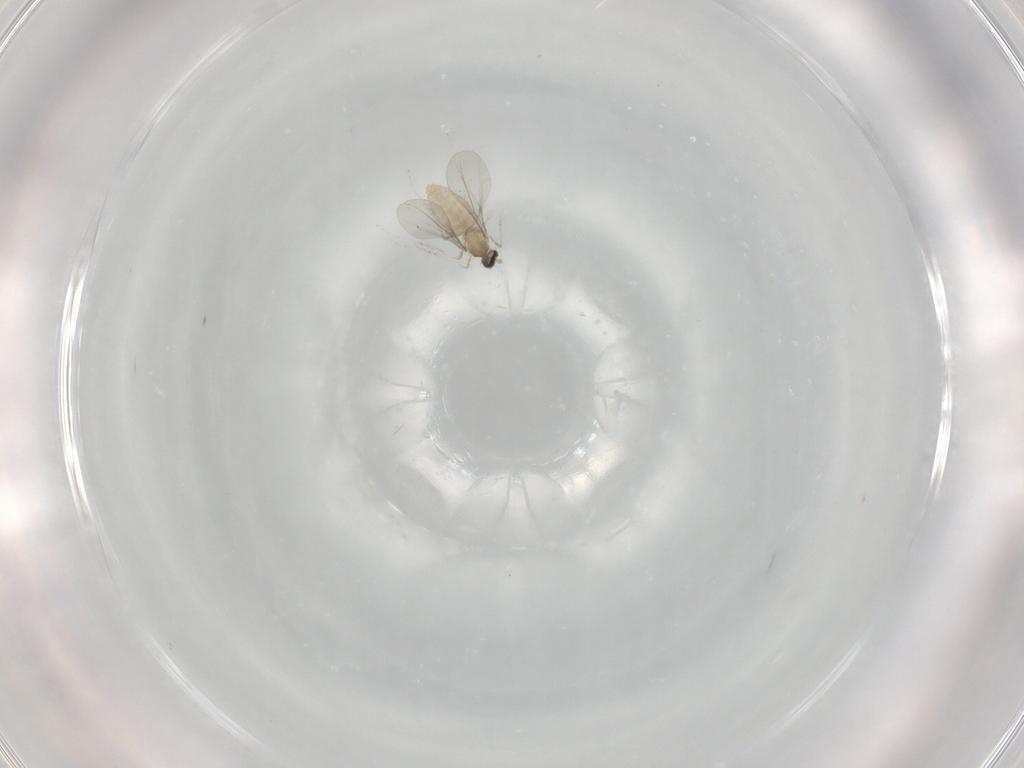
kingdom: Animalia
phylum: Arthropoda
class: Insecta
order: Diptera
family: Cecidomyiidae
